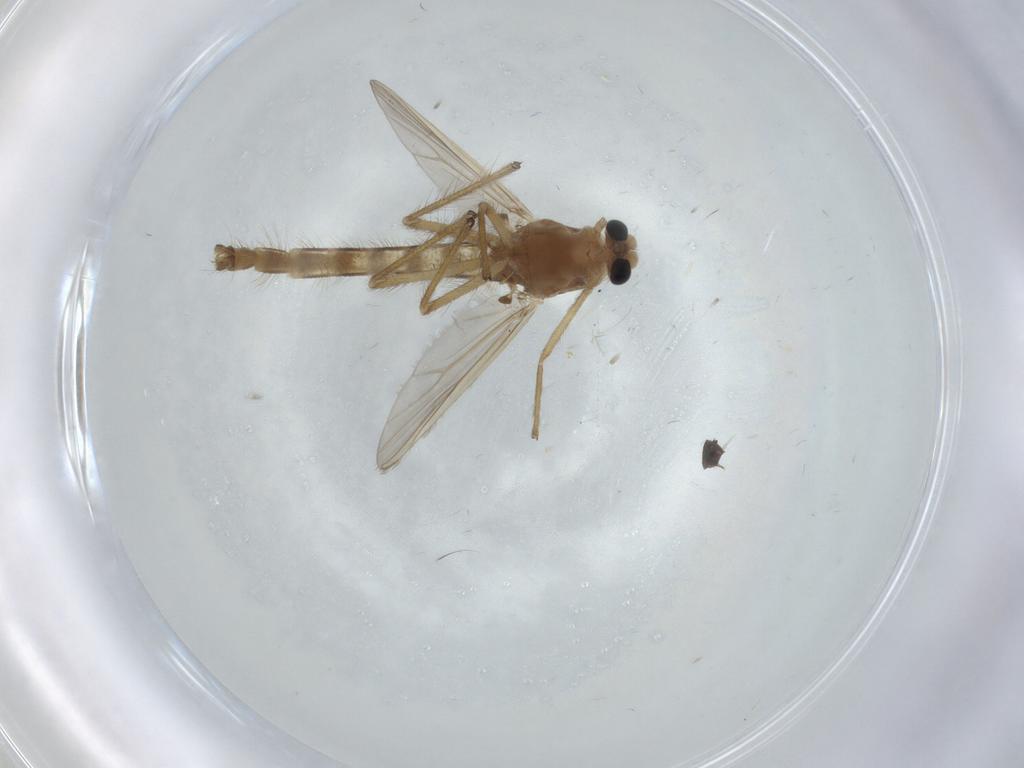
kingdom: Animalia
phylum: Arthropoda
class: Insecta
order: Diptera
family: Chironomidae
